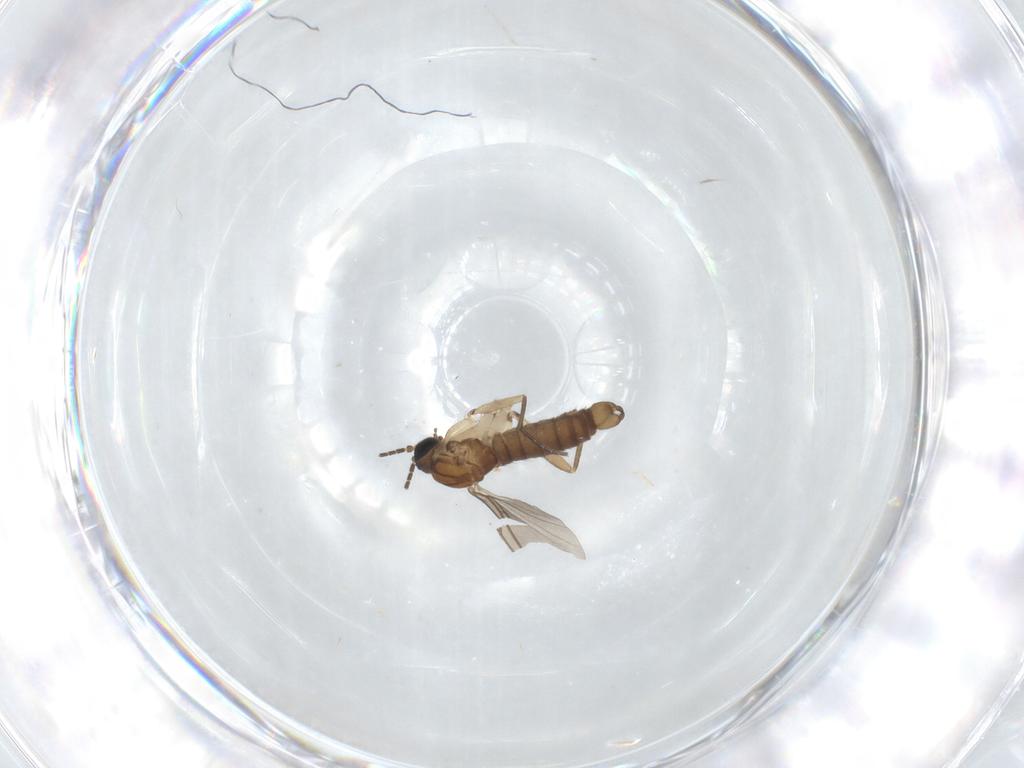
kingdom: Animalia
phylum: Arthropoda
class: Insecta
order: Diptera
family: Sciaridae
